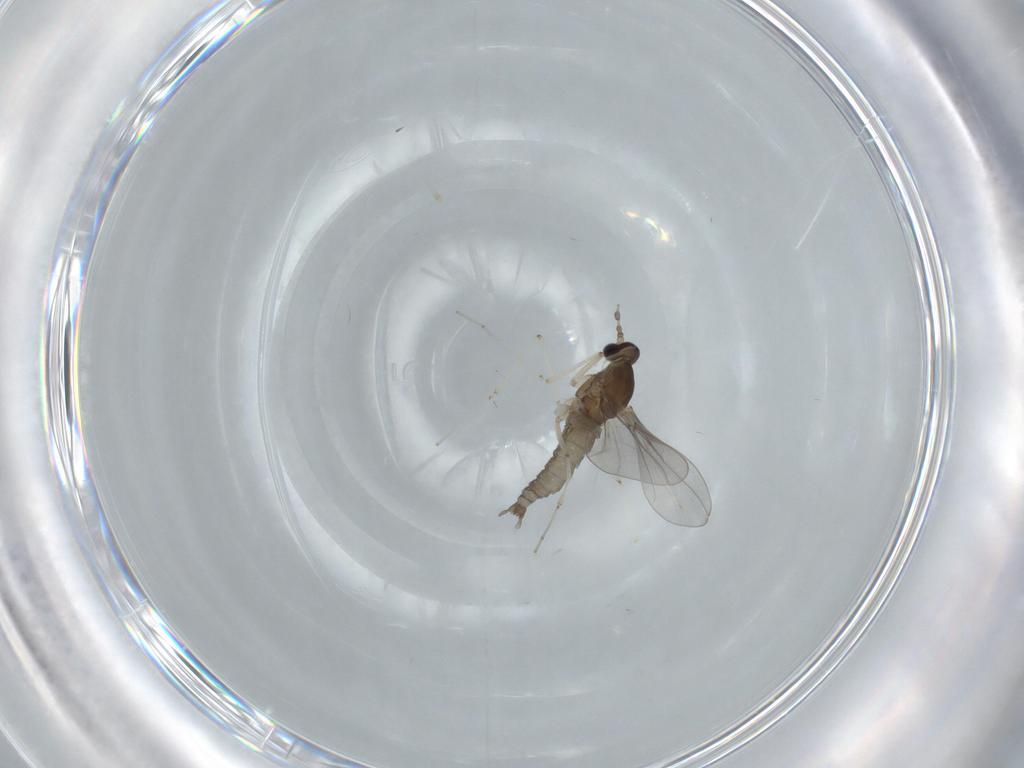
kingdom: Animalia
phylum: Arthropoda
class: Insecta
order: Diptera
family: Cecidomyiidae
